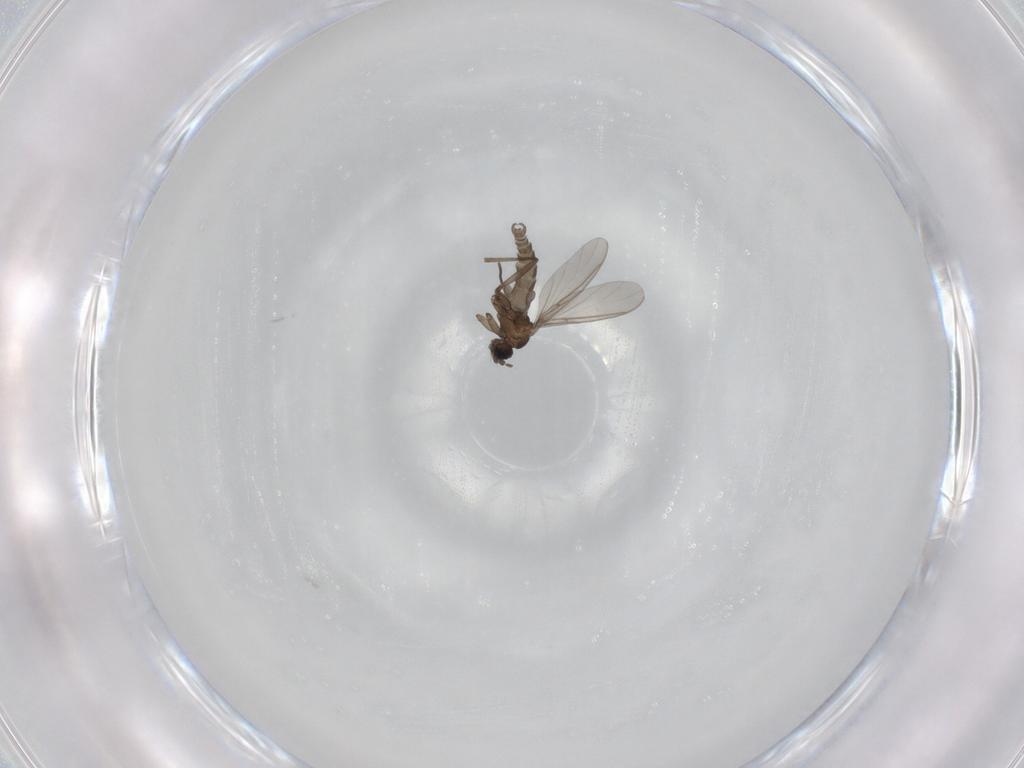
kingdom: Animalia
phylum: Arthropoda
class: Insecta
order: Diptera
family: Sciaridae
